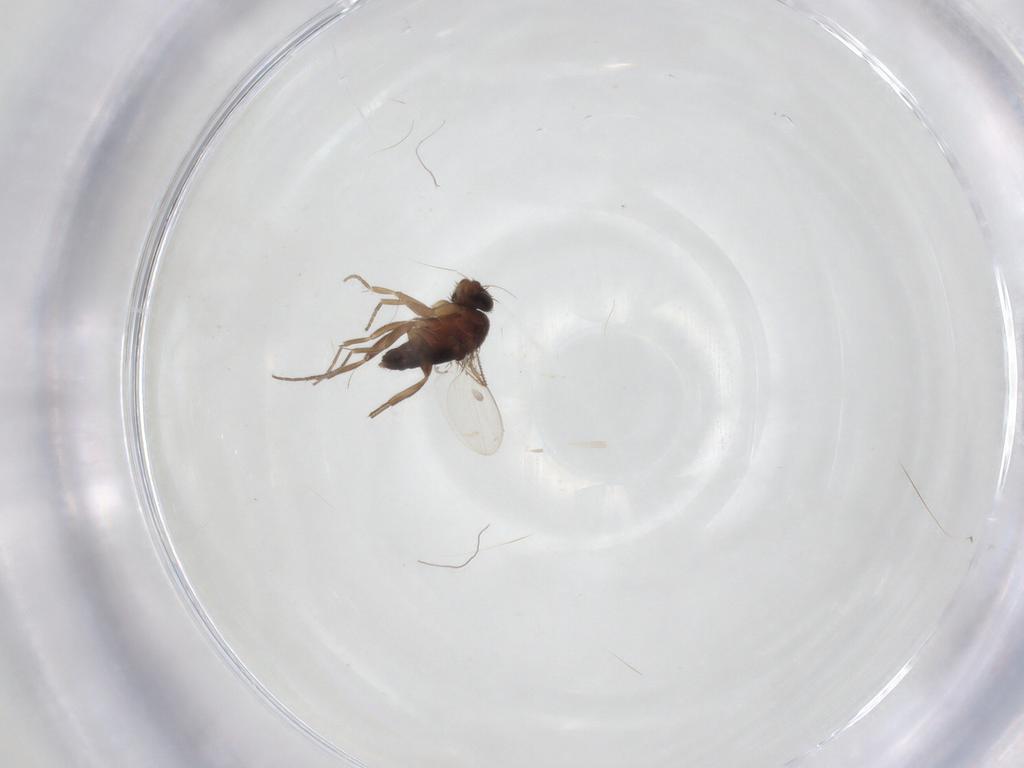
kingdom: Animalia
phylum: Arthropoda
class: Insecta
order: Diptera
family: Phoridae
